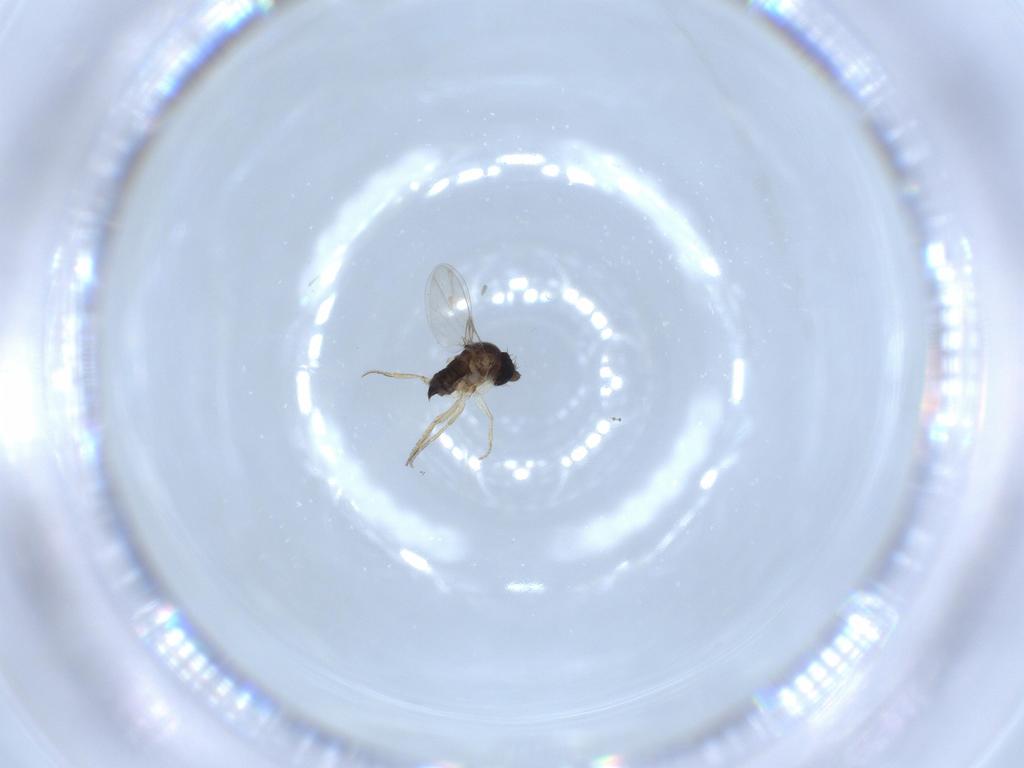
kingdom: Animalia
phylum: Arthropoda
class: Insecta
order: Diptera
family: Phoridae
